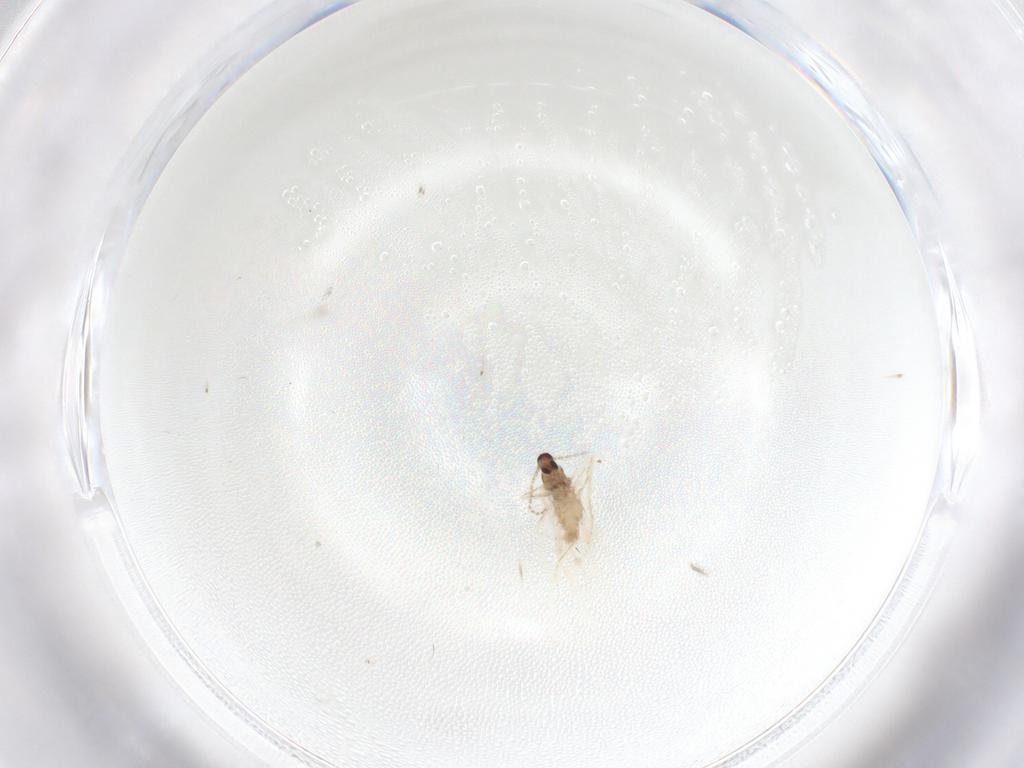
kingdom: Animalia
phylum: Arthropoda
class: Insecta
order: Diptera
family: Cecidomyiidae
